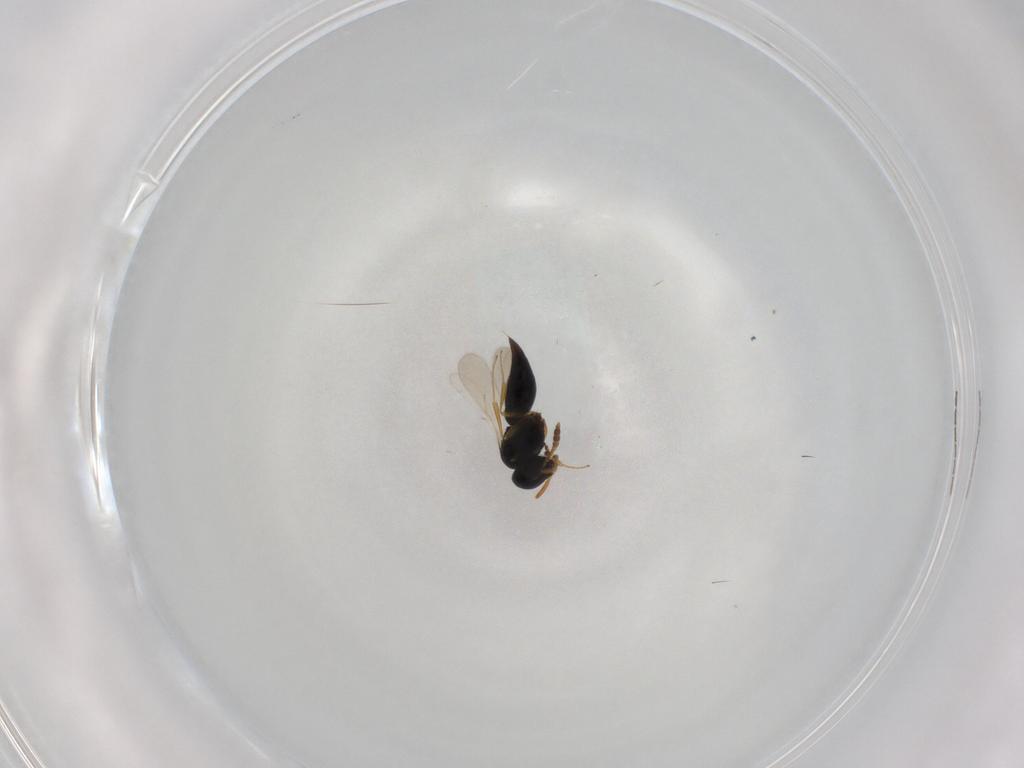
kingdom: Animalia
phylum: Arthropoda
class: Insecta
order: Hymenoptera
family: Scelionidae
